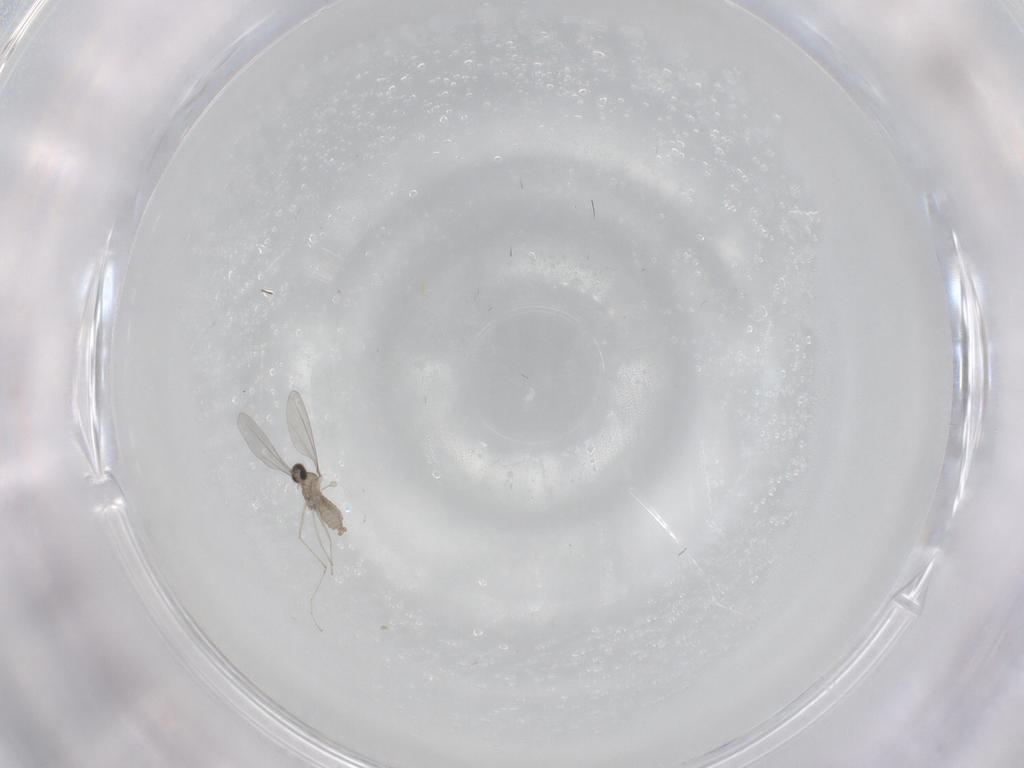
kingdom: Animalia
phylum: Arthropoda
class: Insecta
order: Diptera
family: Cecidomyiidae
